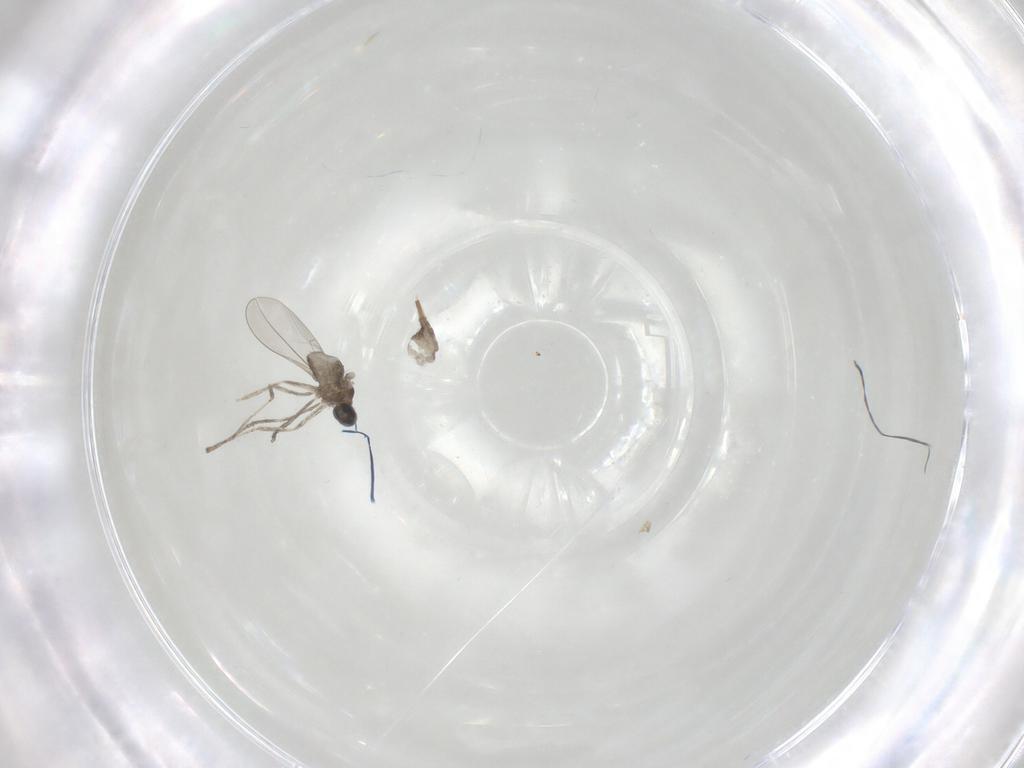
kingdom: Animalia
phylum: Arthropoda
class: Insecta
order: Diptera
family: Cecidomyiidae
